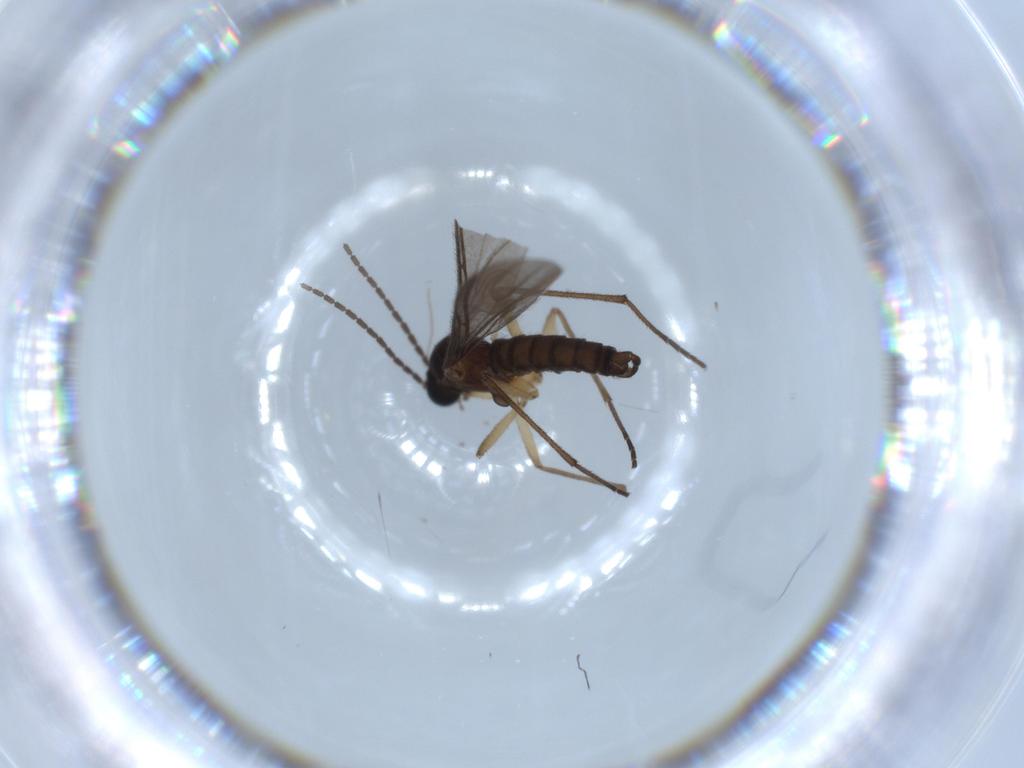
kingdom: Animalia
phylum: Arthropoda
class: Insecta
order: Diptera
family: Sciaridae
